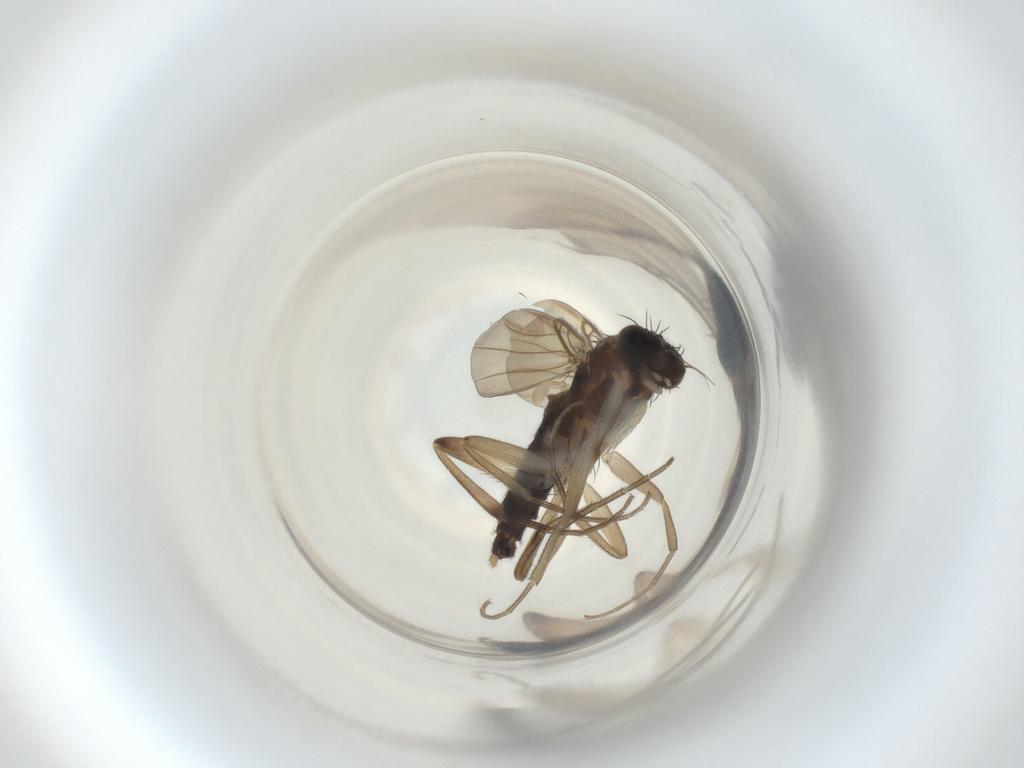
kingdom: Animalia
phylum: Arthropoda
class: Insecta
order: Diptera
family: Phoridae
